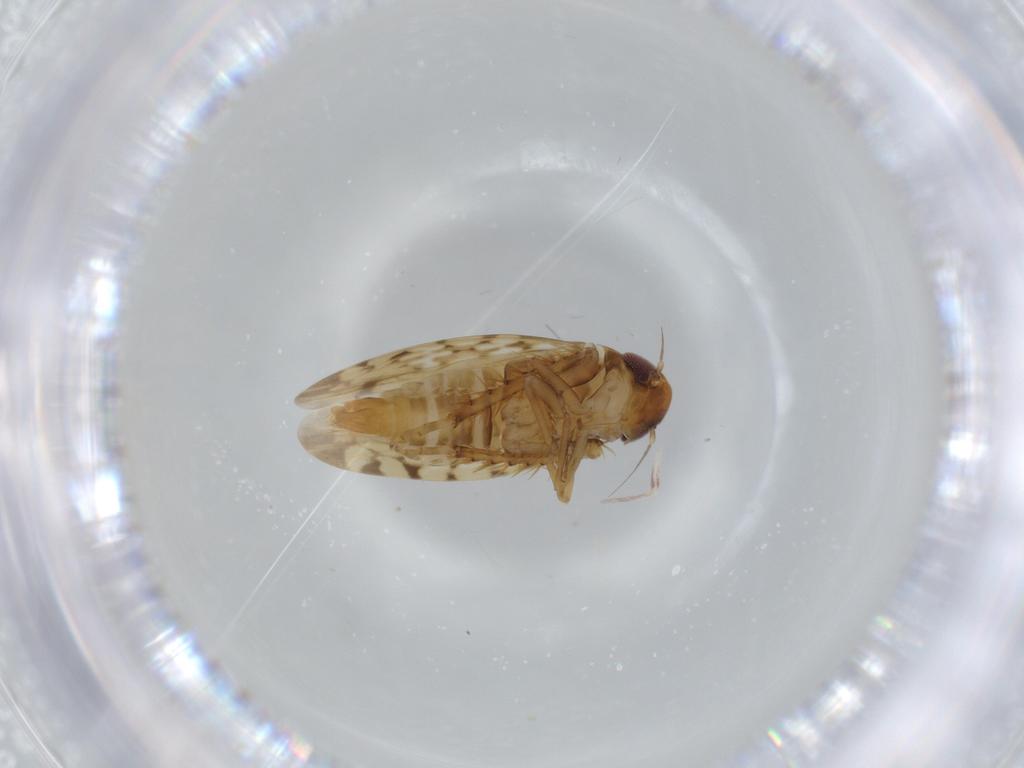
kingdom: Animalia
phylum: Arthropoda
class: Insecta
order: Hemiptera
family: Cicadellidae
